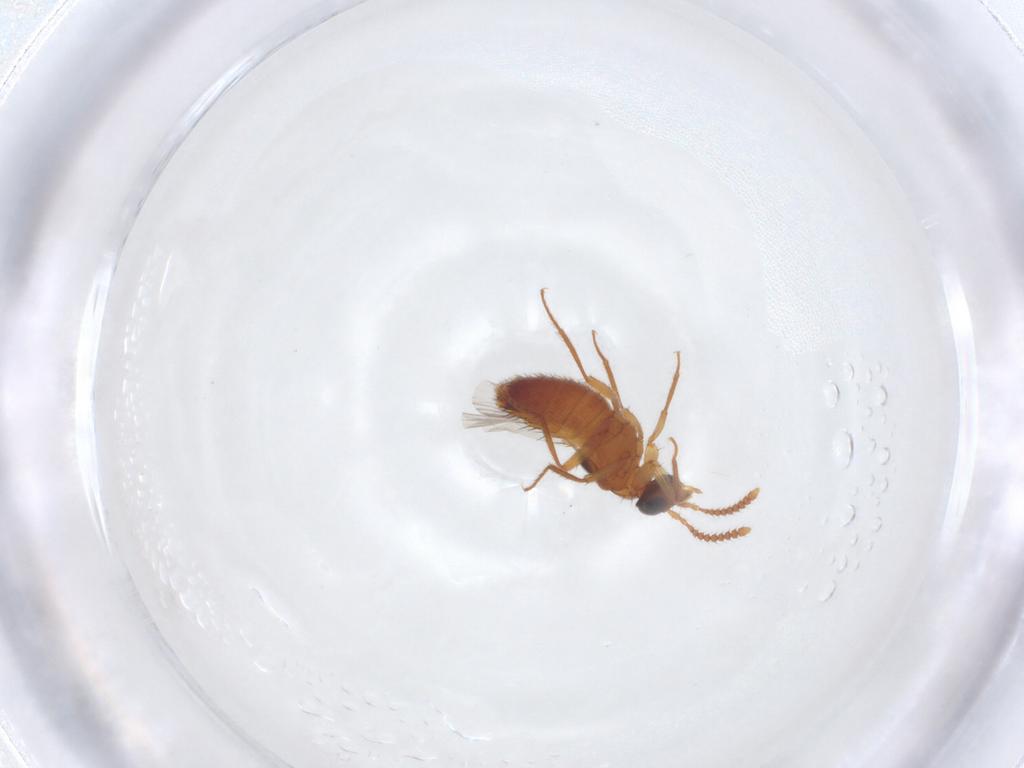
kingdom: Animalia
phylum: Arthropoda
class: Insecta
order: Coleoptera
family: Staphylinidae
